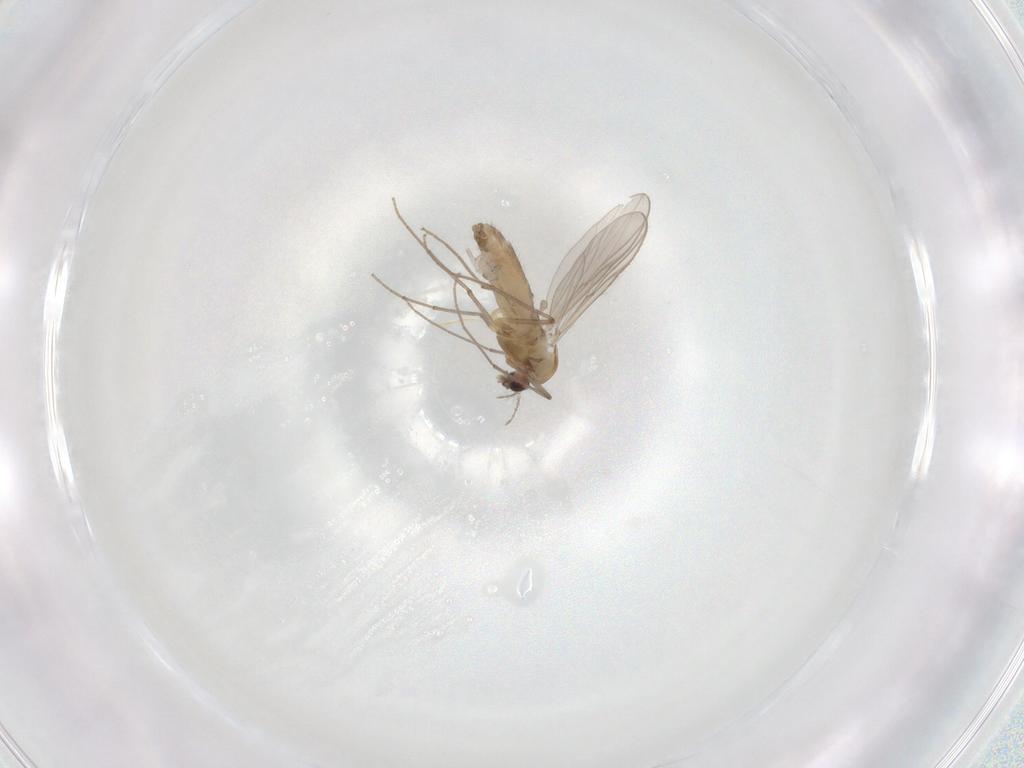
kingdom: Animalia
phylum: Arthropoda
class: Insecta
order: Diptera
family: Chironomidae
